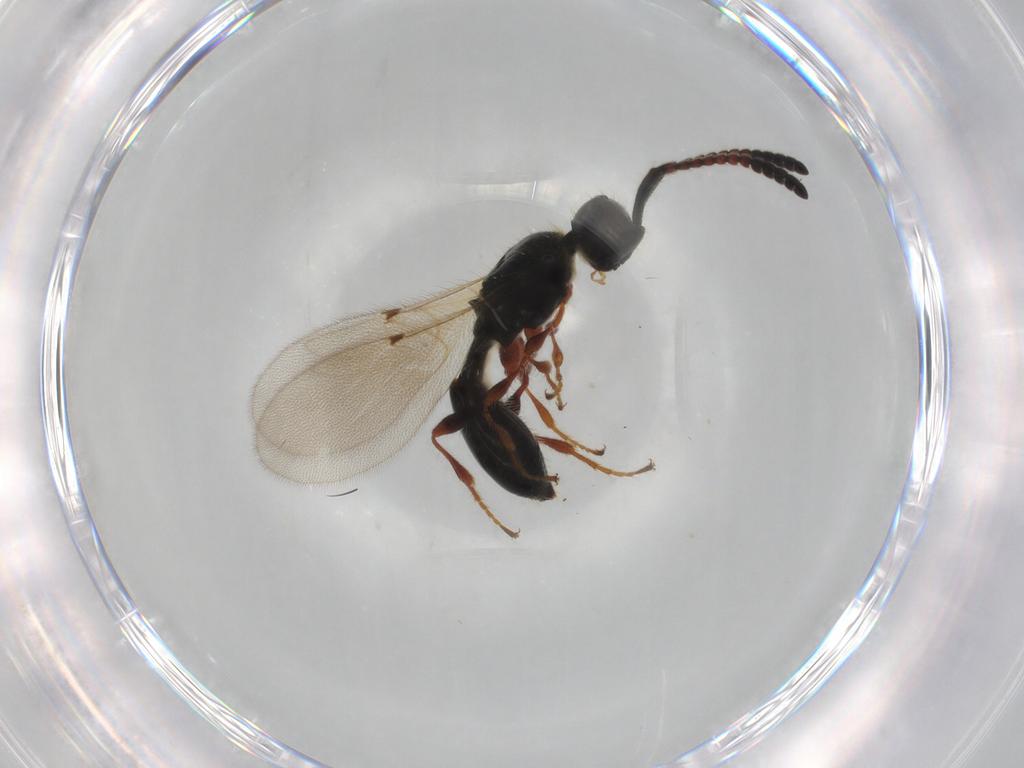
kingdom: Animalia
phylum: Arthropoda
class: Insecta
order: Hymenoptera
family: Diapriidae
